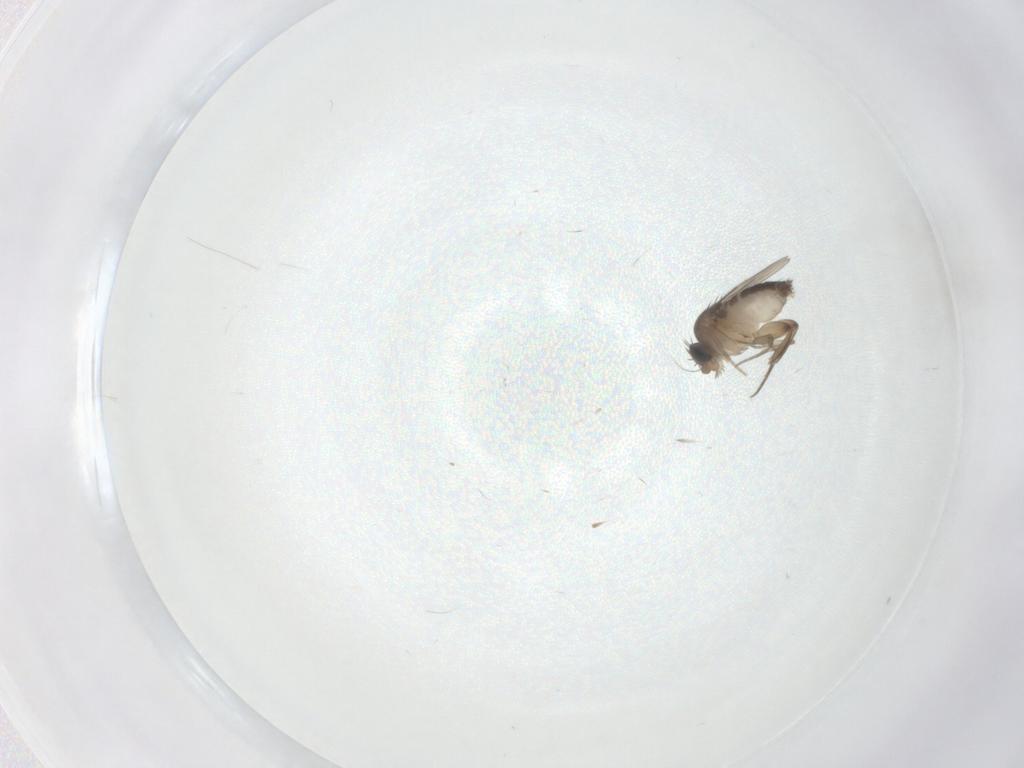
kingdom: Animalia
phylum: Arthropoda
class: Insecta
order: Diptera
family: Phoridae
